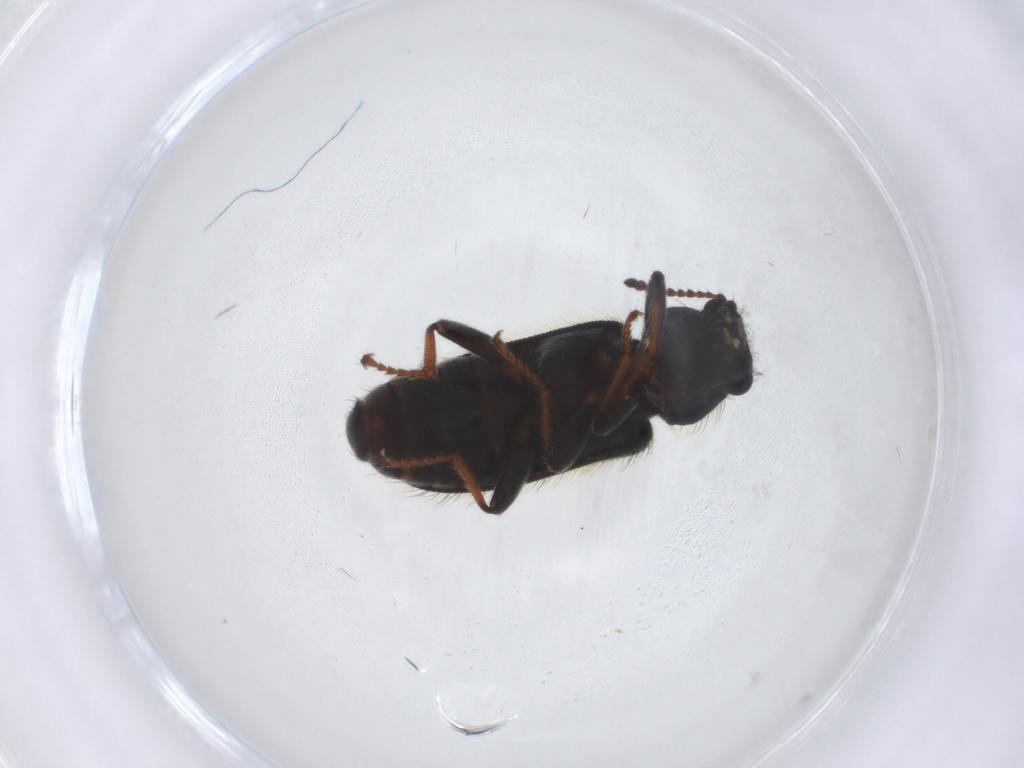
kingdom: Animalia
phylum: Arthropoda
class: Insecta
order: Coleoptera
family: Melyridae
